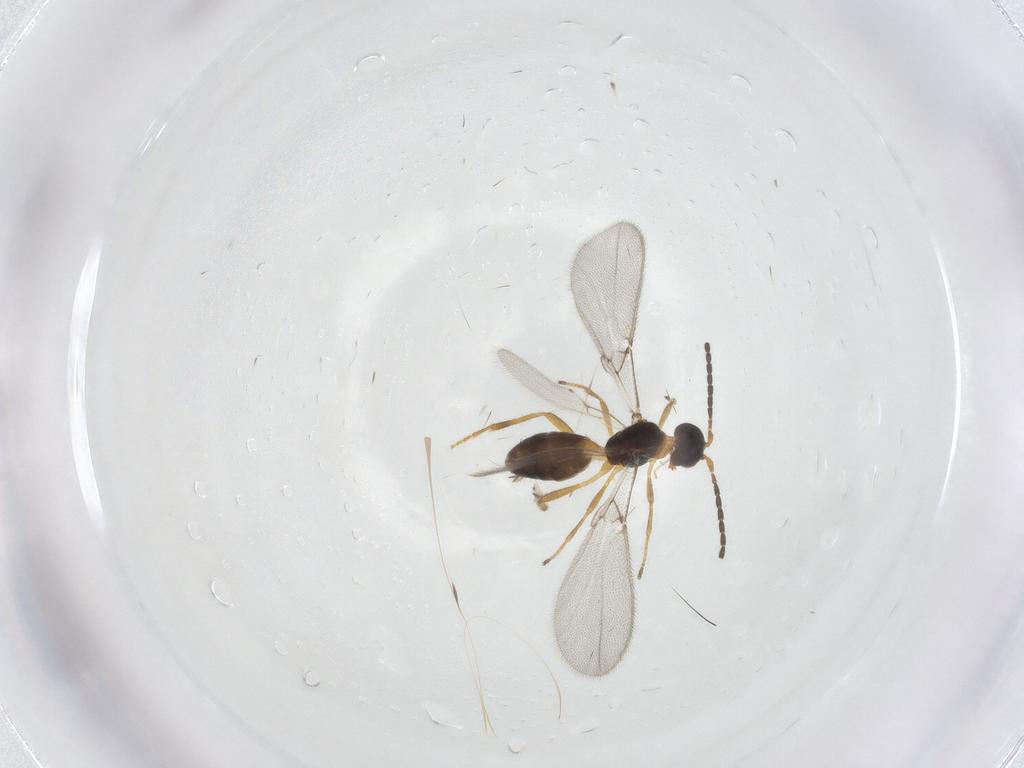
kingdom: Animalia
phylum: Arthropoda
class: Insecta
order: Hymenoptera
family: Braconidae
